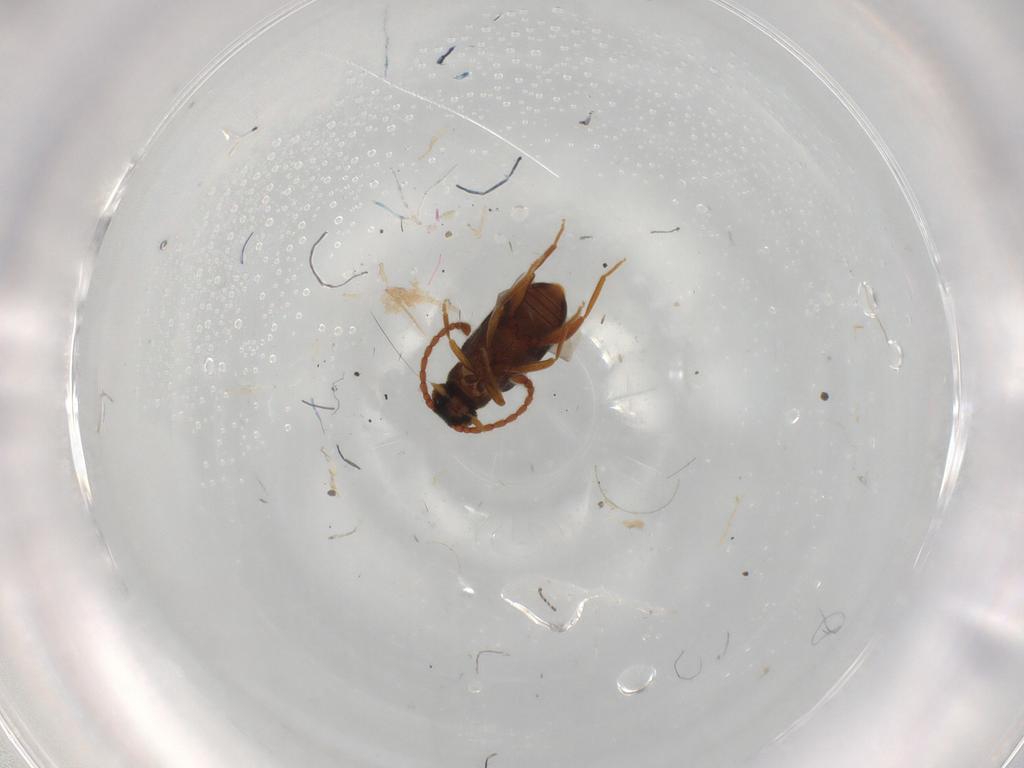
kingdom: Animalia
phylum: Arthropoda
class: Insecta
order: Coleoptera
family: Aderidae
